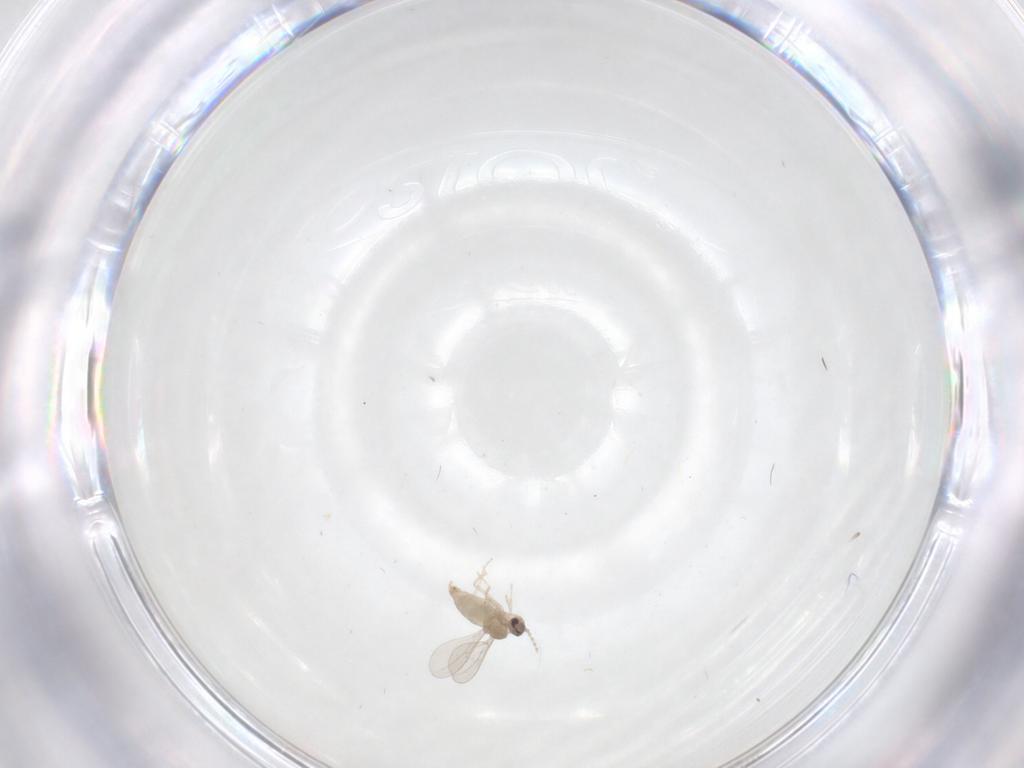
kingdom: Animalia
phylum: Arthropoda
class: Insecta
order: Diptera
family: Cecidomyiidae
